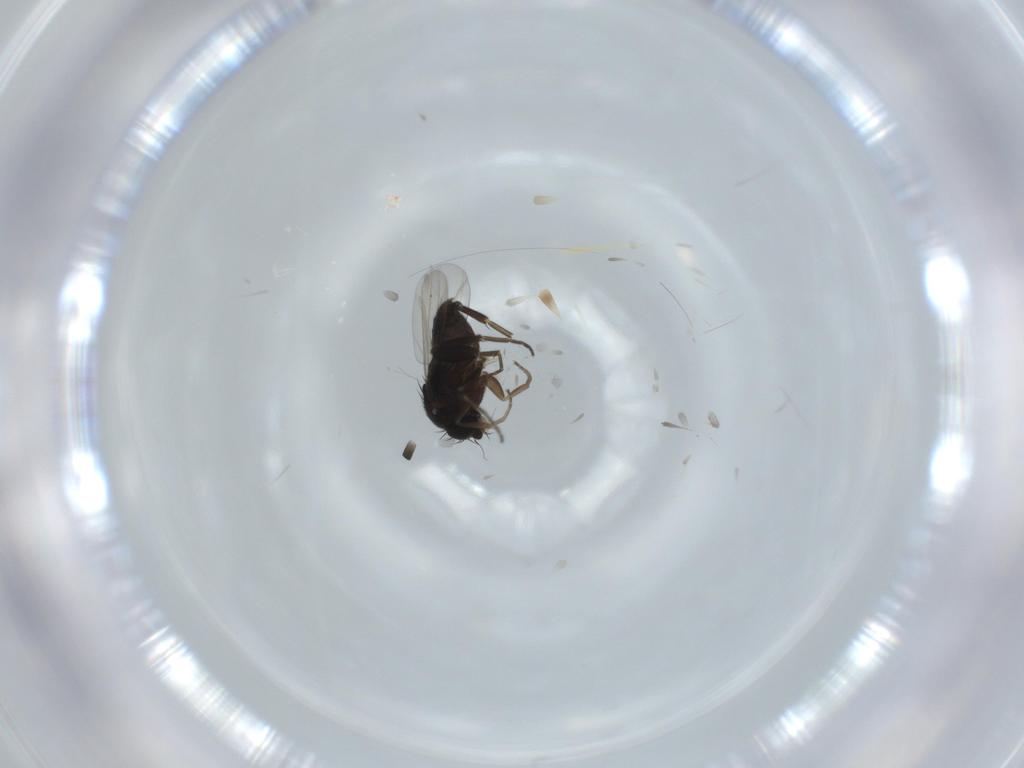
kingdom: Animalia
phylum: Arthropoda
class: Insecta
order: Diptera
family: Phoridae
